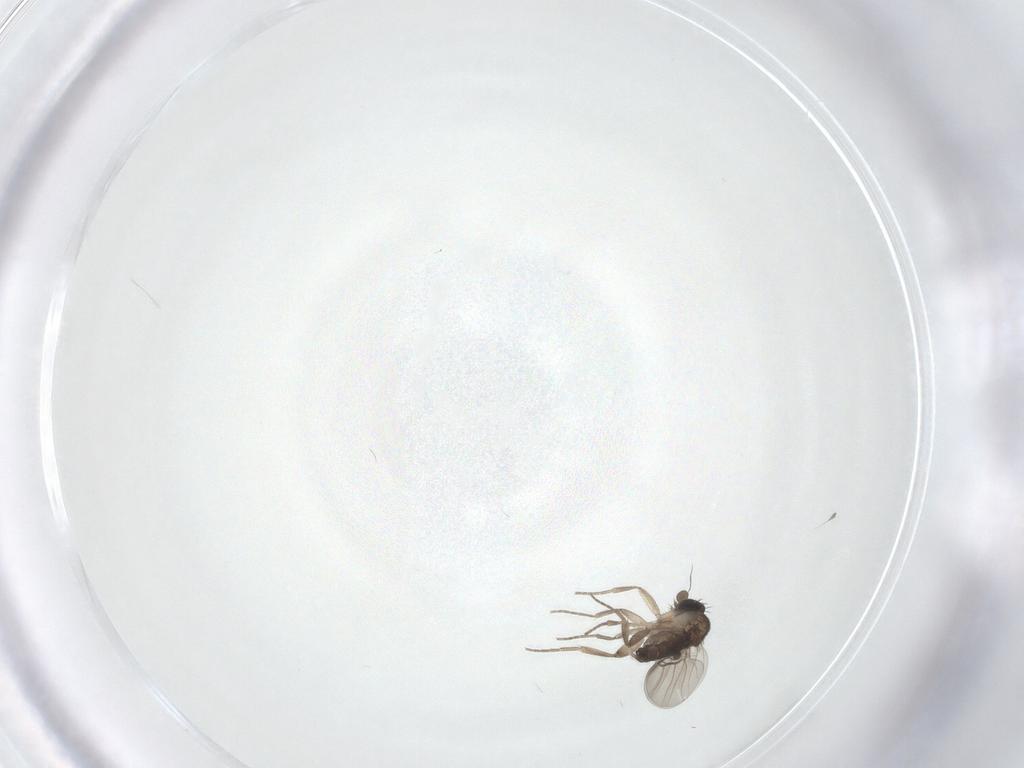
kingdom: Animalia
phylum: Arthropoda
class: Insecta
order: Diptera
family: Phoridae
